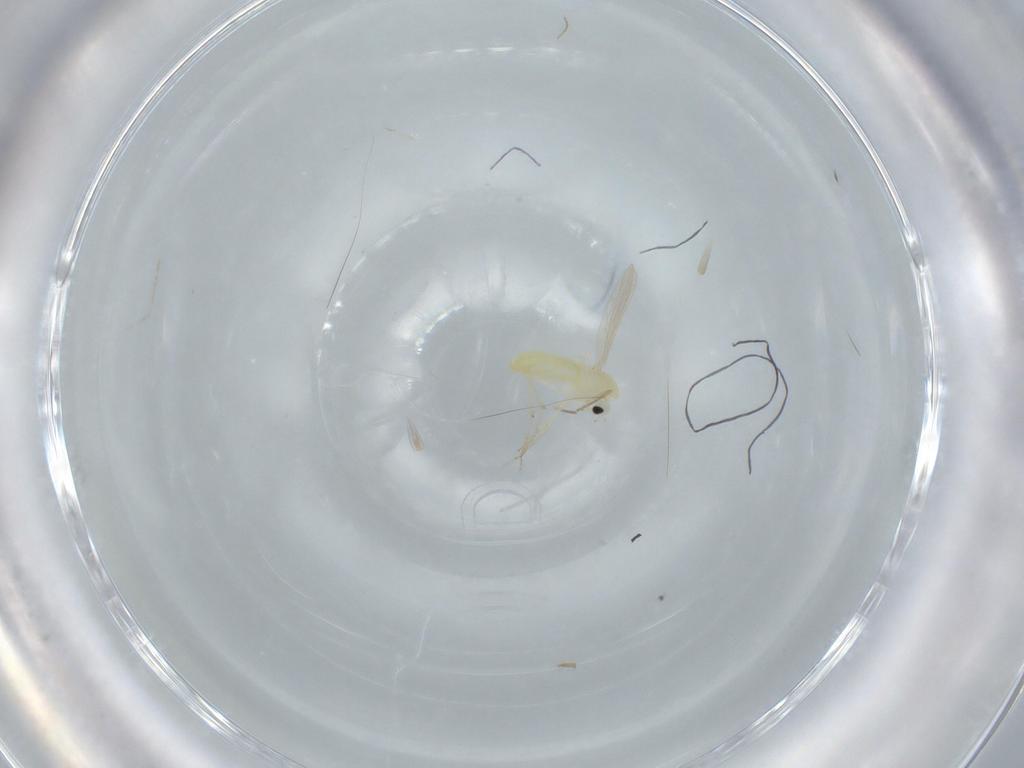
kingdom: Animalia
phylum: Arthropoda
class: Insecta
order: Diptera
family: Chironomidae
